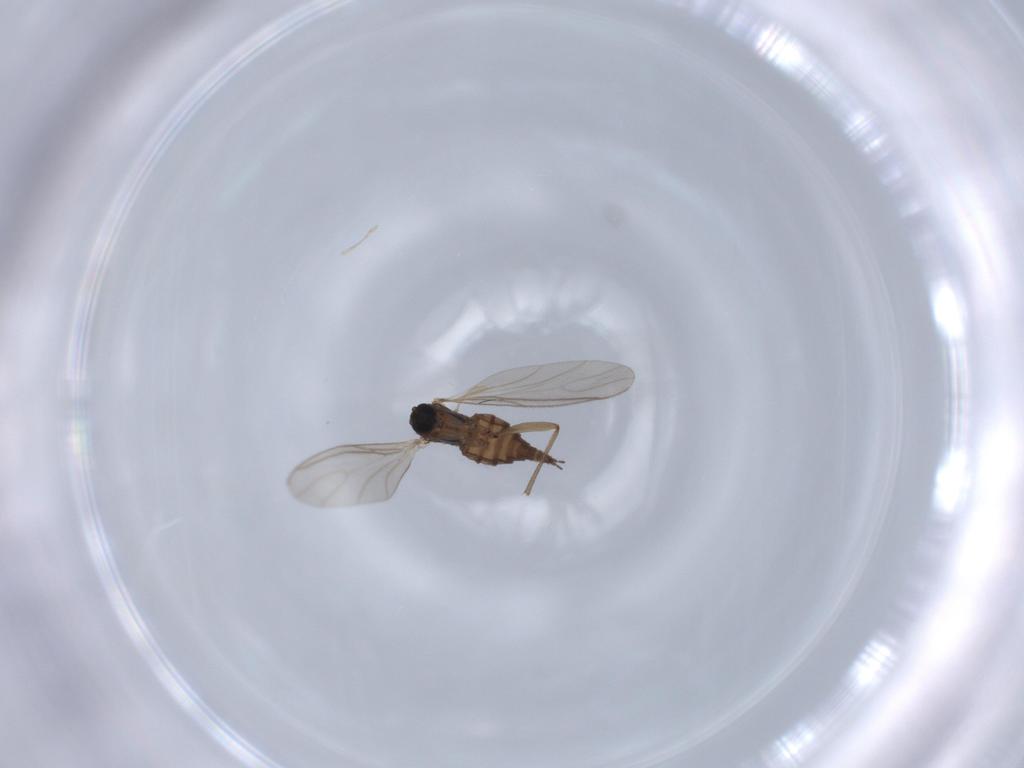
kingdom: Animalia
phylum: Arthropoda
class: Insecta
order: Diptera
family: Sciaridae
